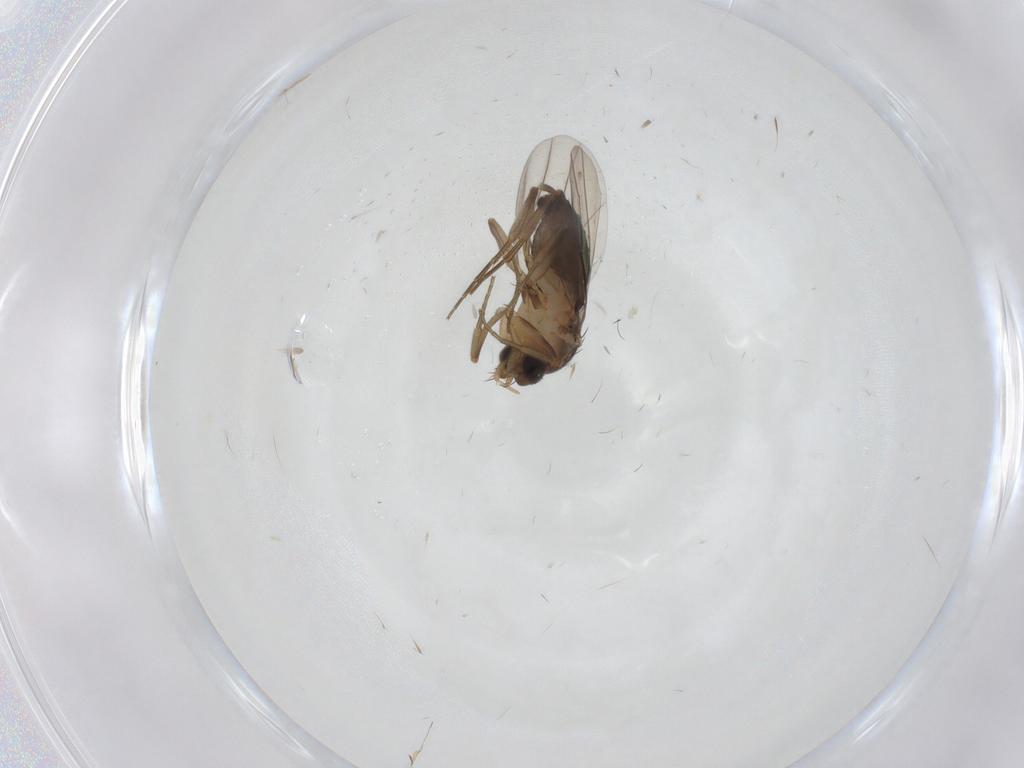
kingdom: Animalia
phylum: Arthropoda
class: Insecta
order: Diptera
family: Phoridae
